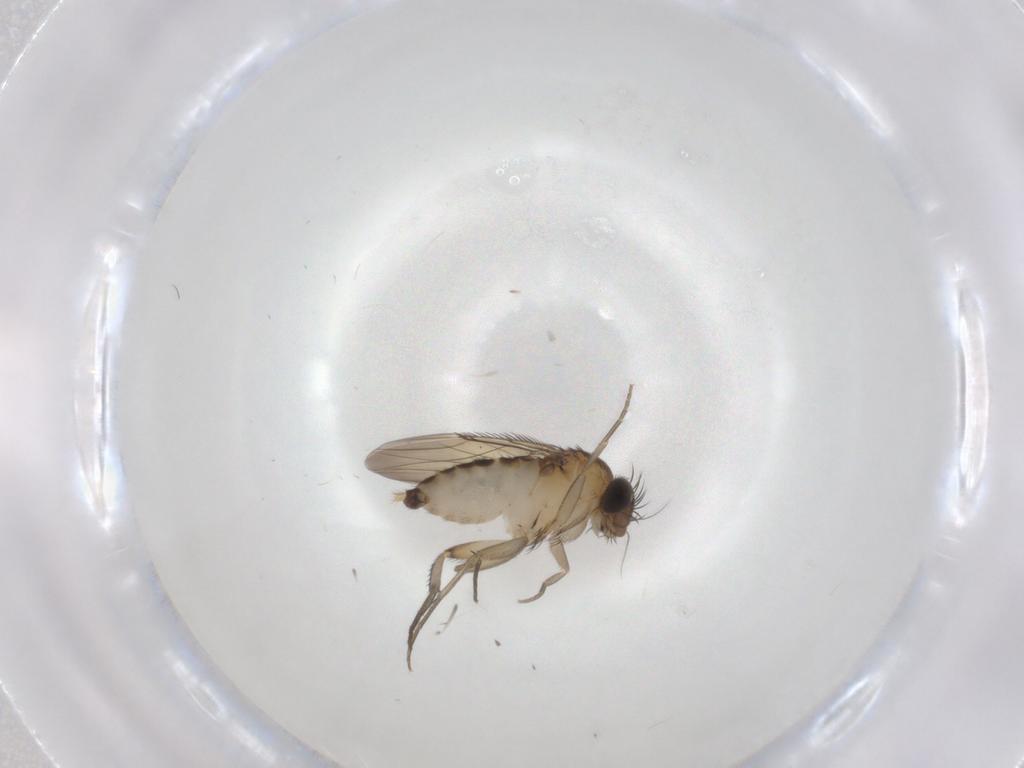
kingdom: Animalia
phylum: Arthropoda
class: Insecta
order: Diptera
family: Phoridae
